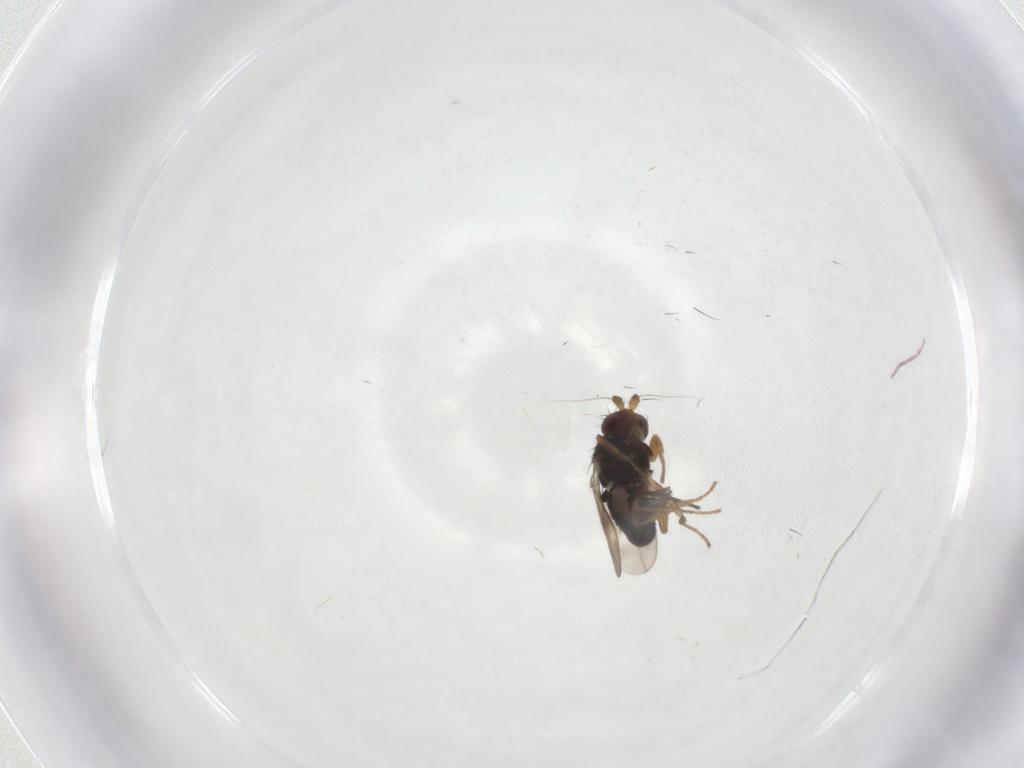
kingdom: Animalia
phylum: Arthropoda
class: Insecta
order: Diptera
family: Sphaeroceridae
